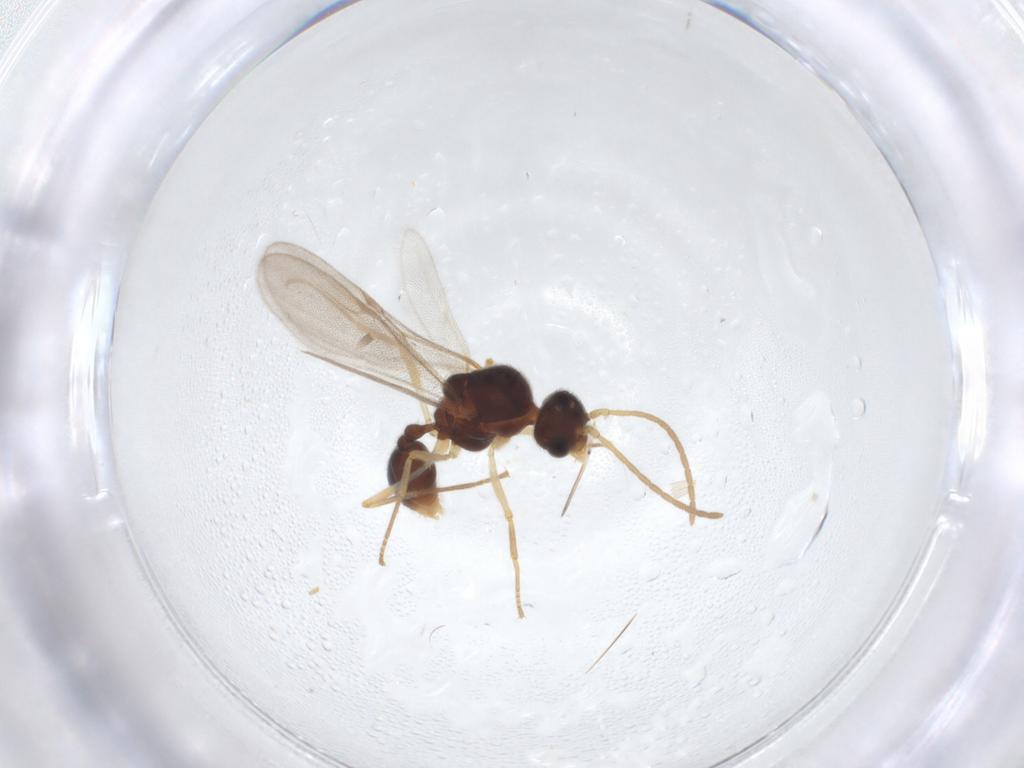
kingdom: Animalia
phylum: Arthropoda
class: Insecta
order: Hymenoptera
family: Formicidae
